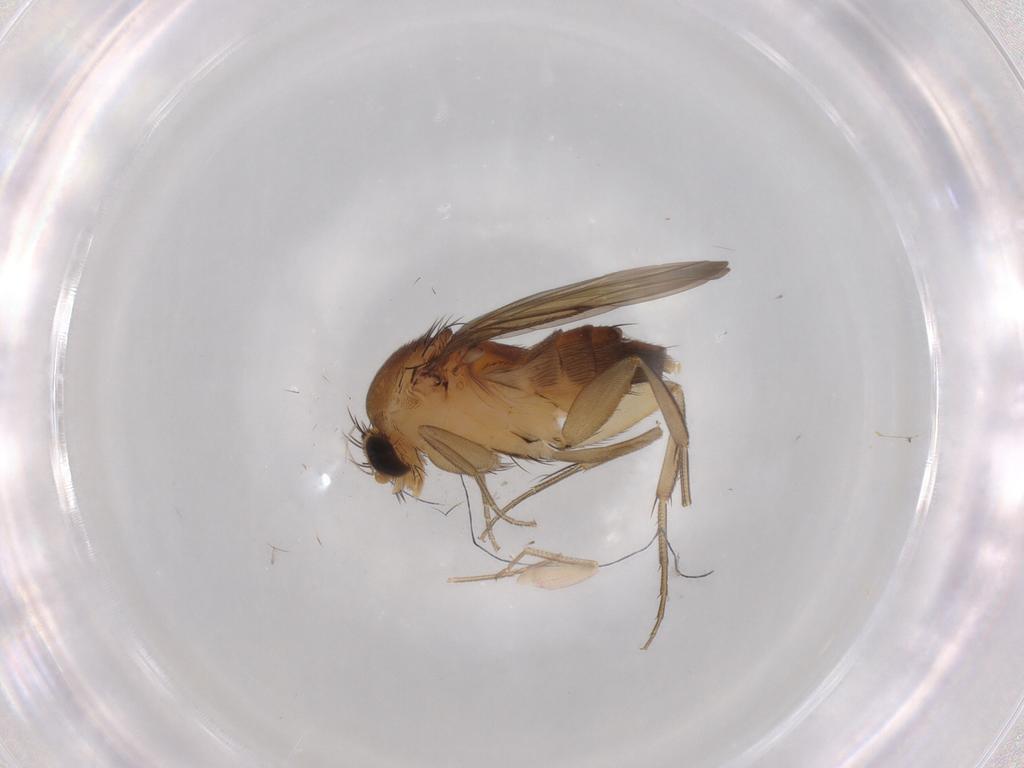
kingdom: Animalia
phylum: Arthropoda
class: Insecta
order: Diptera
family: Phoridae
